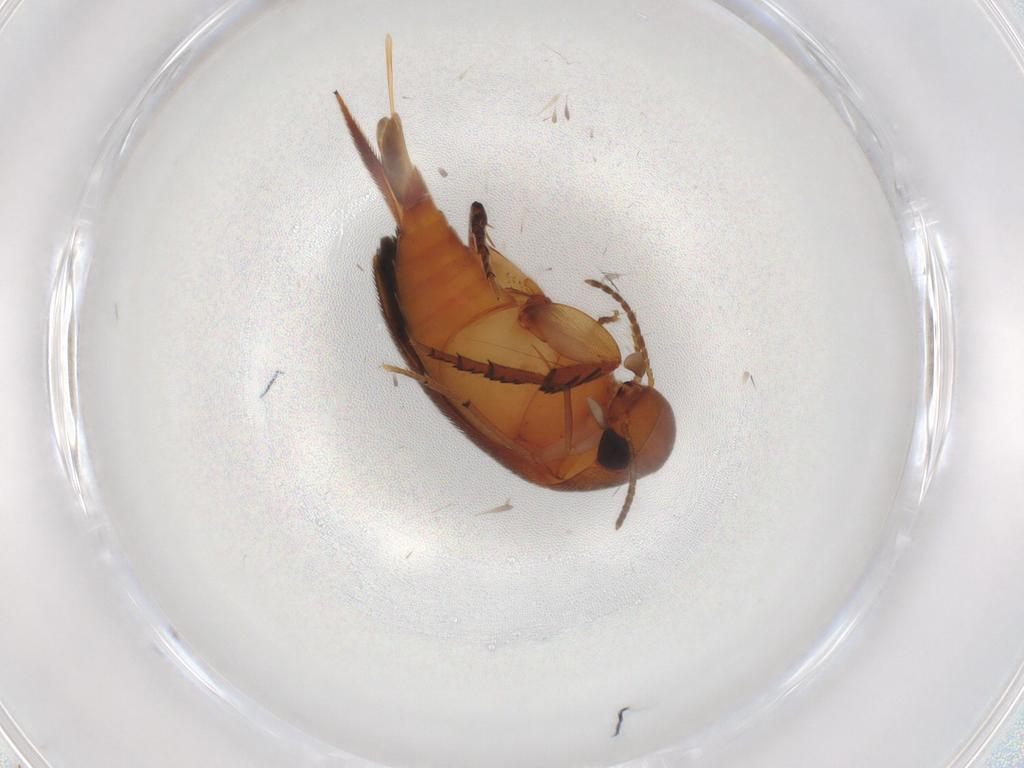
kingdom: Animalia
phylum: Arthropoda
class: Insecta
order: Coleoptera
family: Mordellidae
